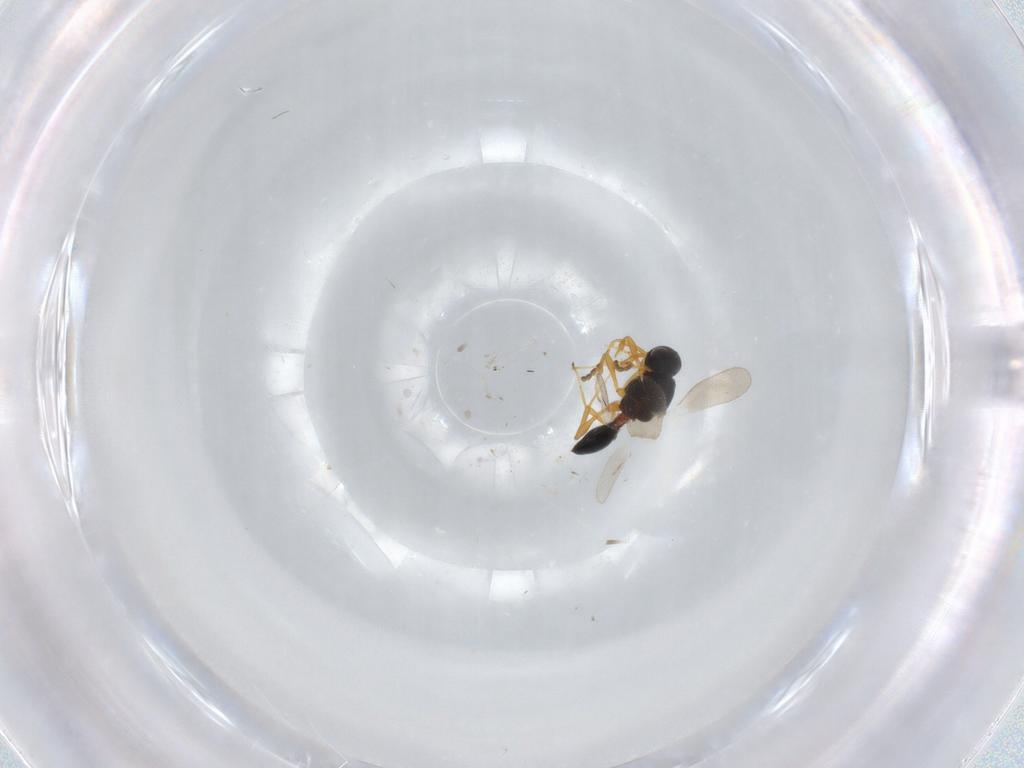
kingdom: Animalia
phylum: Arthropoda
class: Insecta
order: Hymenoptera
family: Platygastridae
